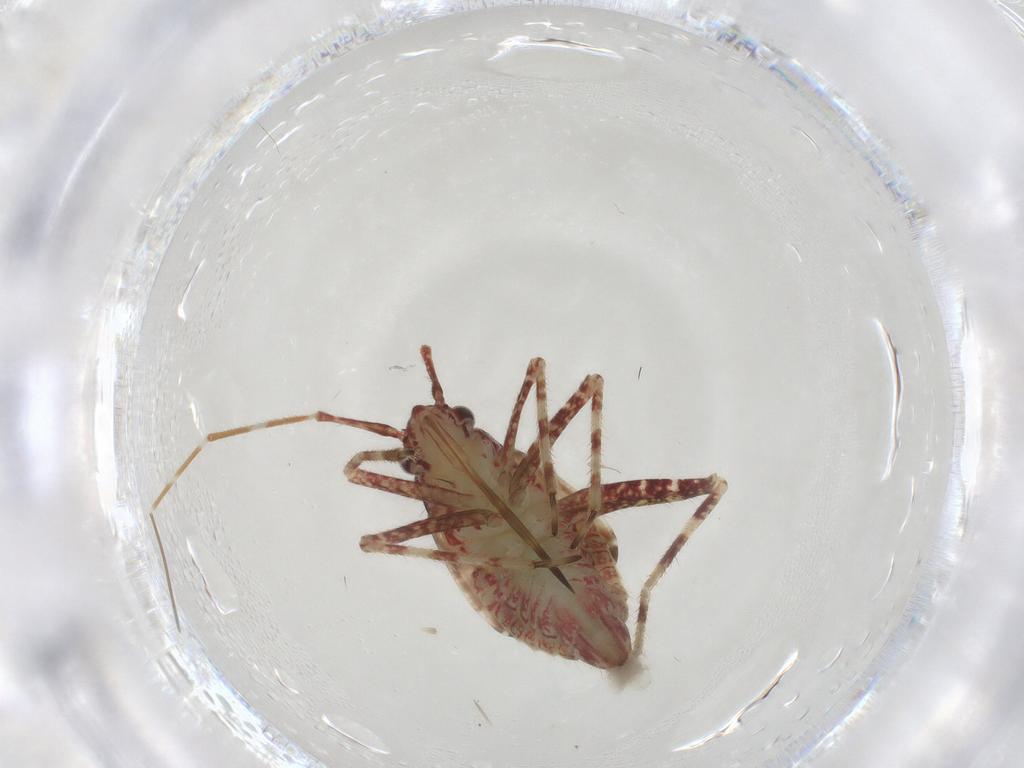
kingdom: Animalia
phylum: Arthropoda
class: Insecta
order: Hemiptera
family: Miridae
